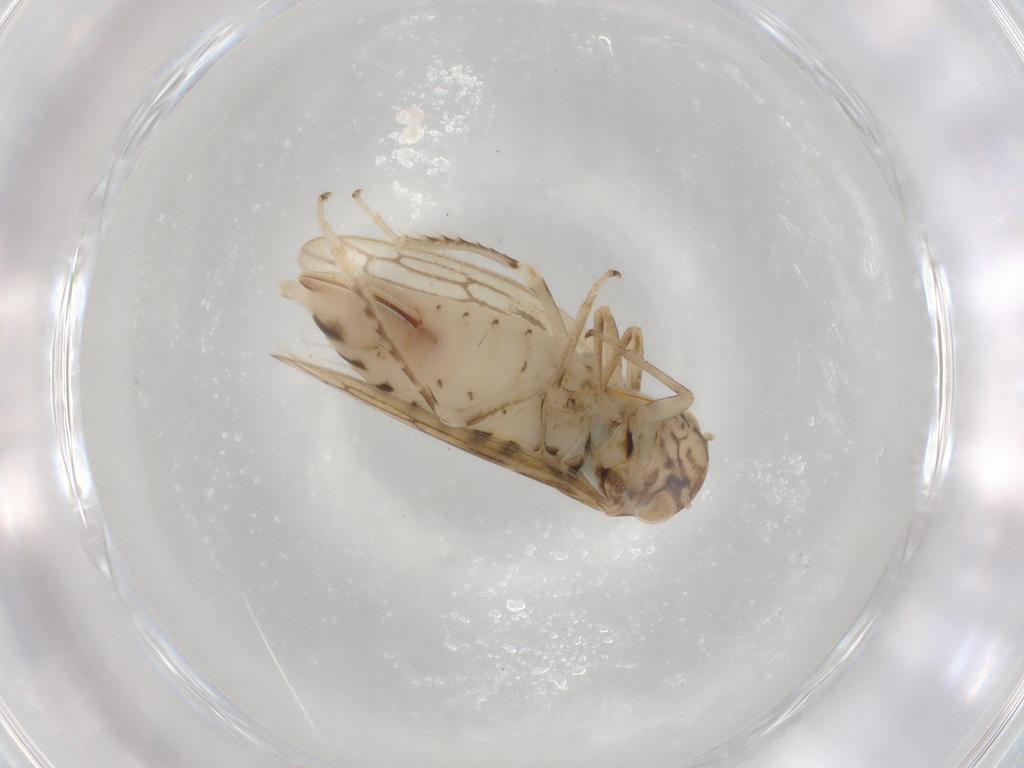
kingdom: Animalia
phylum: Arthropoda
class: Insecta
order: Hemiptera
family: Cicadellidae
